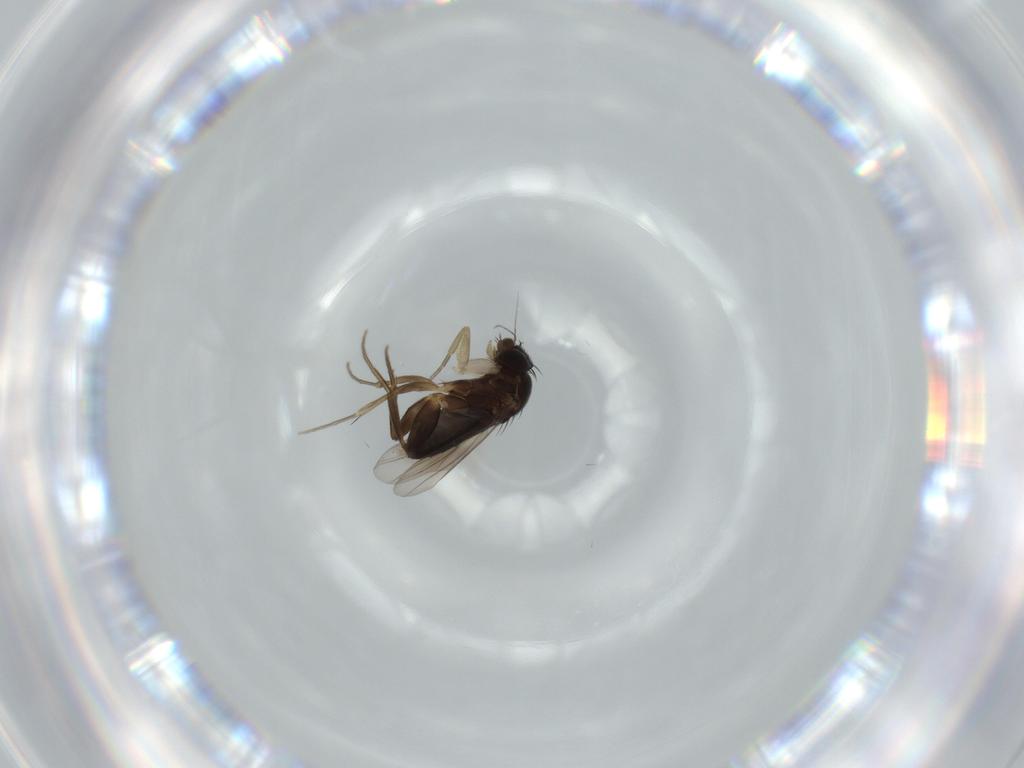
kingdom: Animalia
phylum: Arthropoda
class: Insecta
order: Diptera
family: Phoridae
